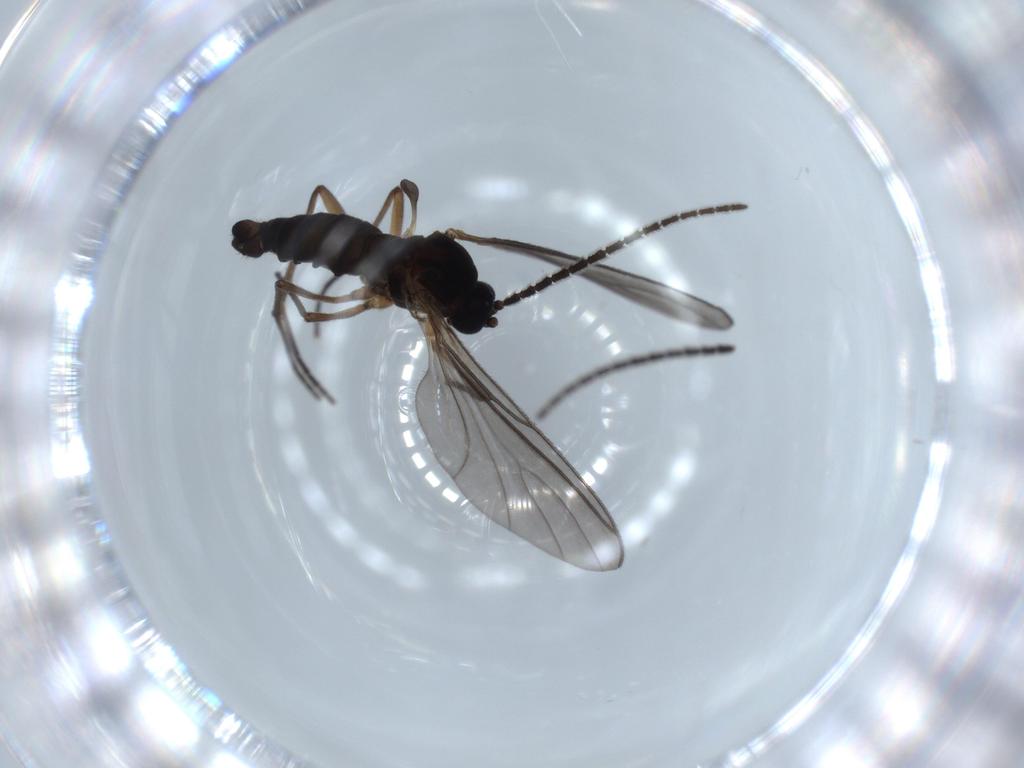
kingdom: Animalia
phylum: Arthropoda
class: Insecta
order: Diptera
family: Sciaridae
